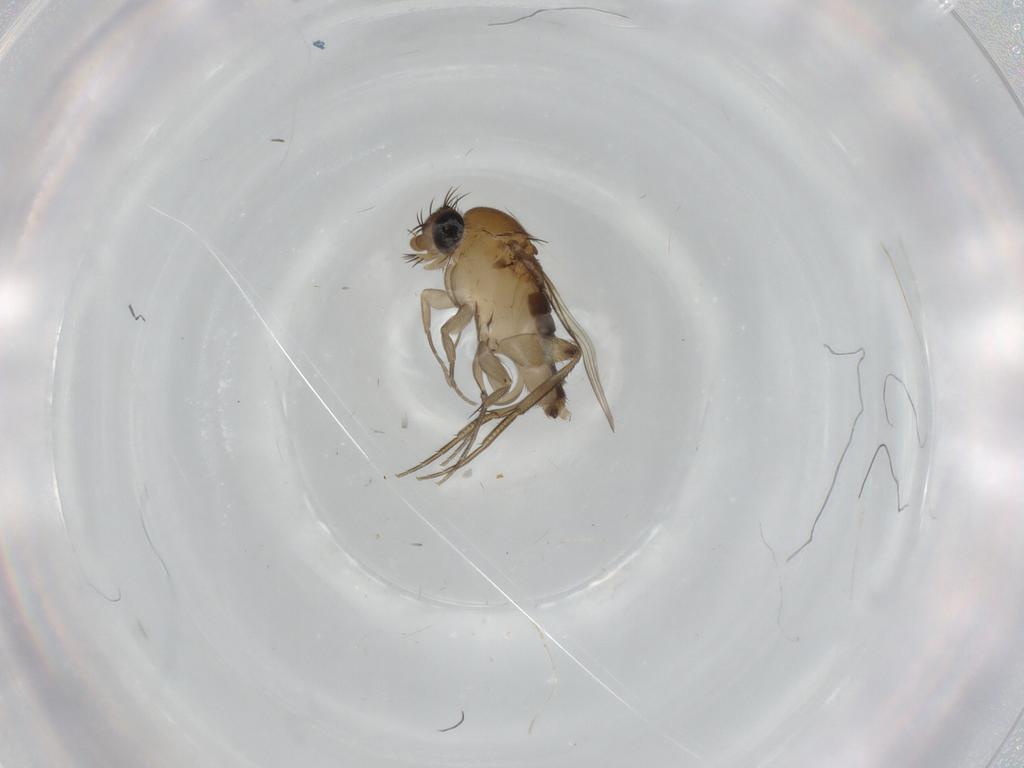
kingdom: Animalia
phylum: Arthropoda
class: Insecta
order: Diptera
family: Phoridae
